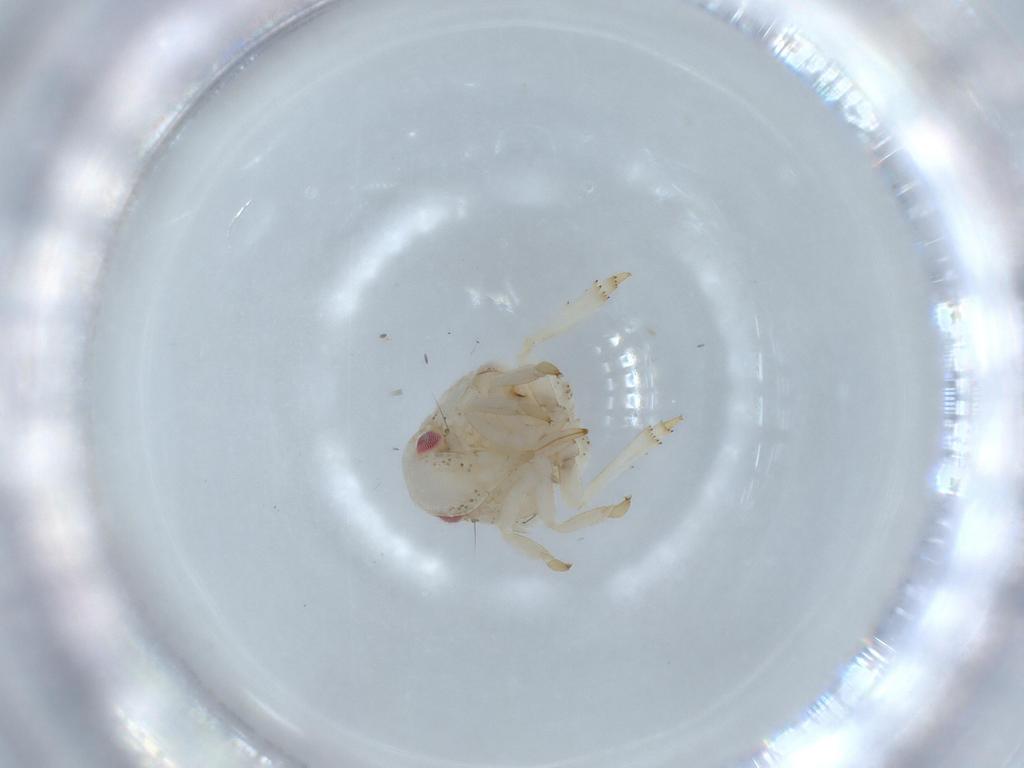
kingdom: Animalia
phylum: Arthropoda
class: Insecta
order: Hemiptera
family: Acanaloniidae
